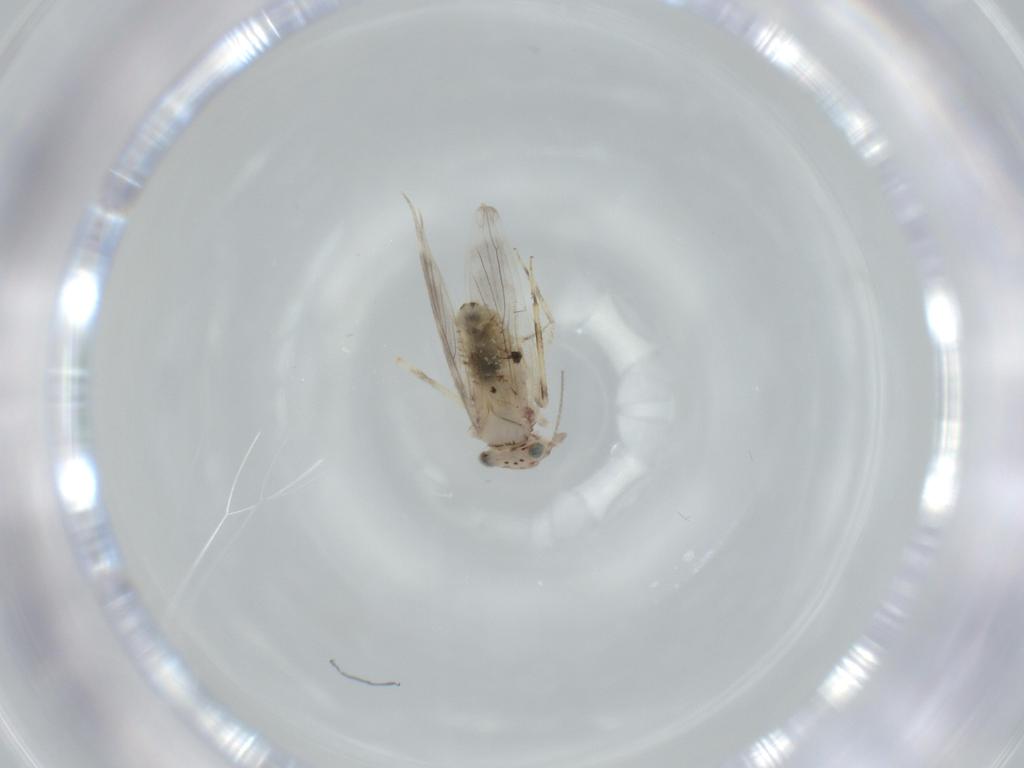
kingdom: Animalia
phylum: Arthropoda
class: Insecta
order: Psocodea
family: Lepidopsocidae
